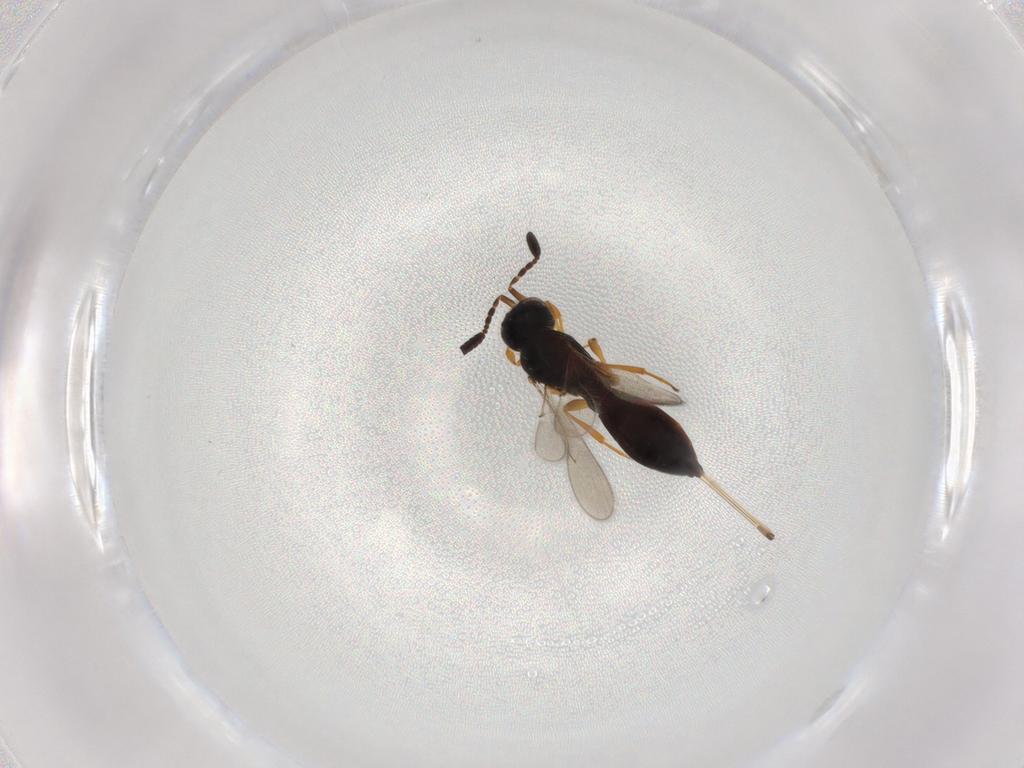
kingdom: Animalia
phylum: Arthropoda
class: Insecta
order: Hymenoptera
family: Scelionidae
